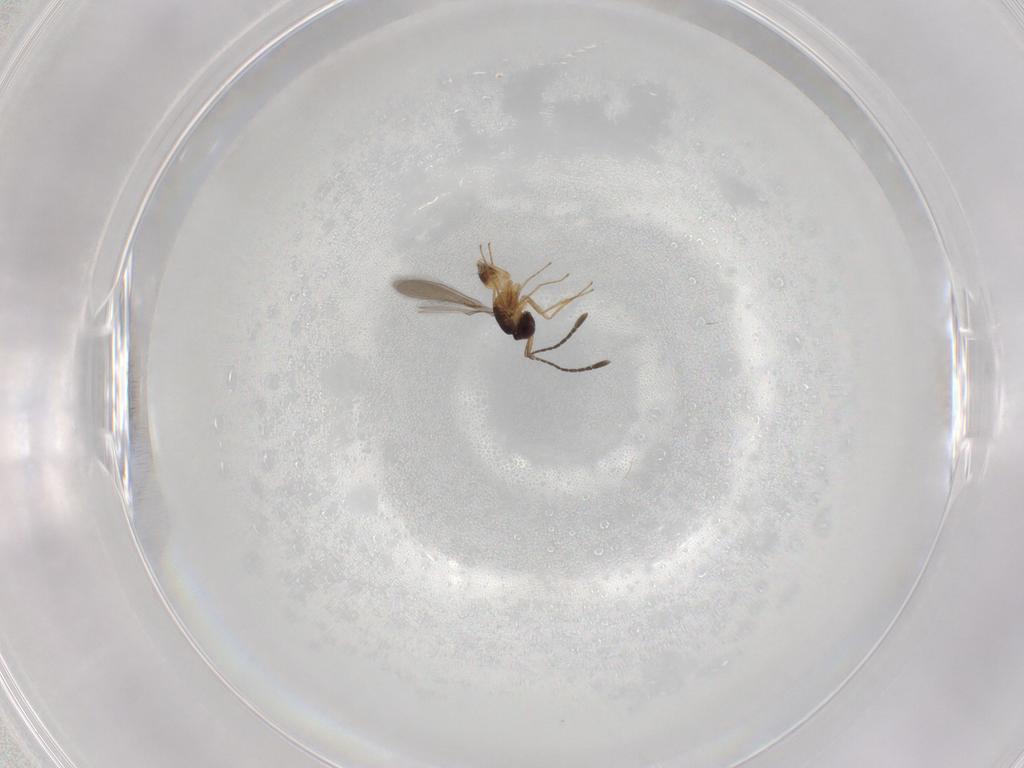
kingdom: Animalia
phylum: Arthropoda
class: Insecta
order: Hymenoptera
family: Mymaridae
